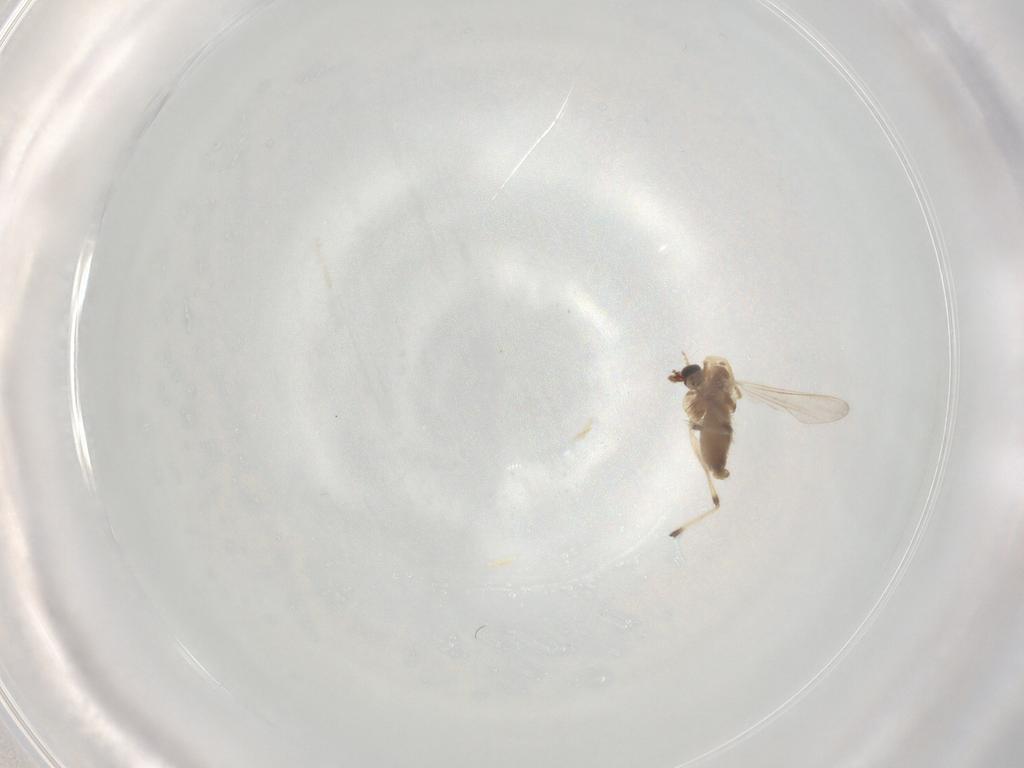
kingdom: Animalia
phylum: Arthropoda
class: Insecta
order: Diptera
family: Chironomidae
